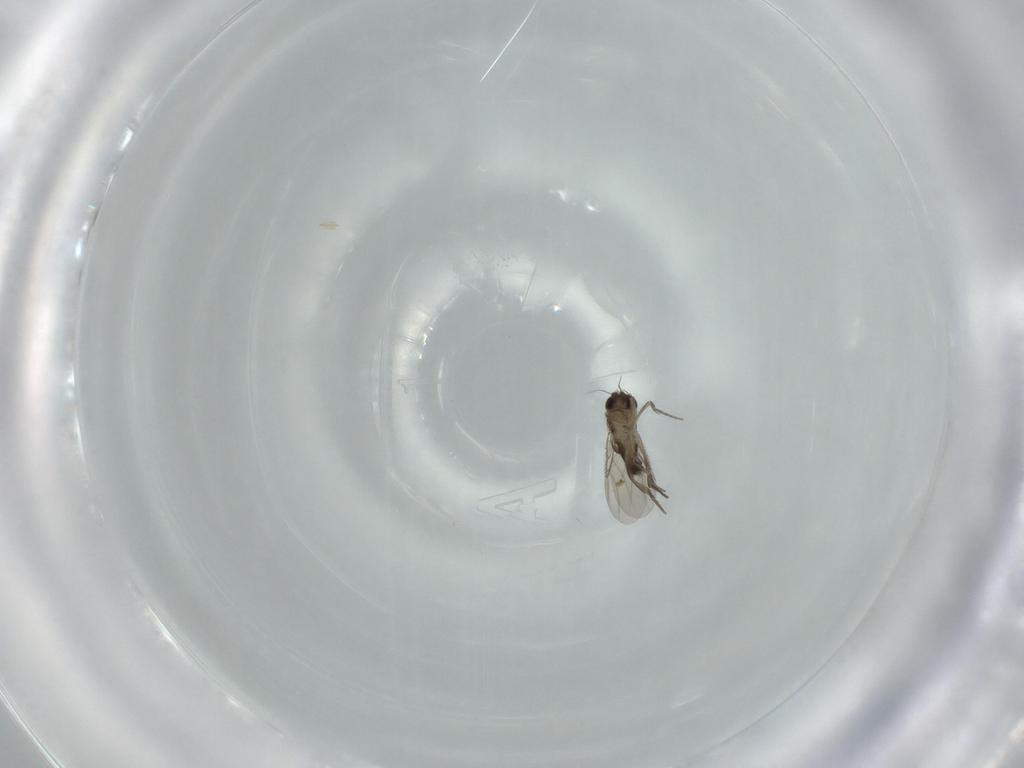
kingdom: Animalia
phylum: Arthropoda
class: Insecta
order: Diptera
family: Phoridae
